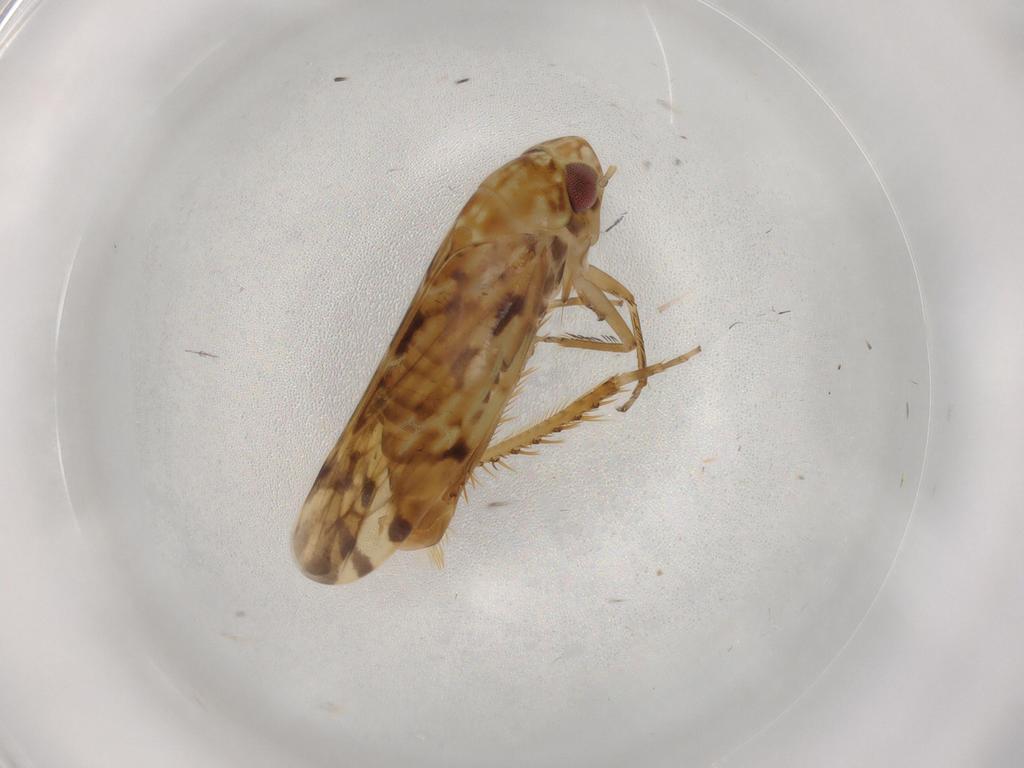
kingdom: Animalia
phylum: Arthropoda
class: Insecta
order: Hemiptera
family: Cicadellidae
